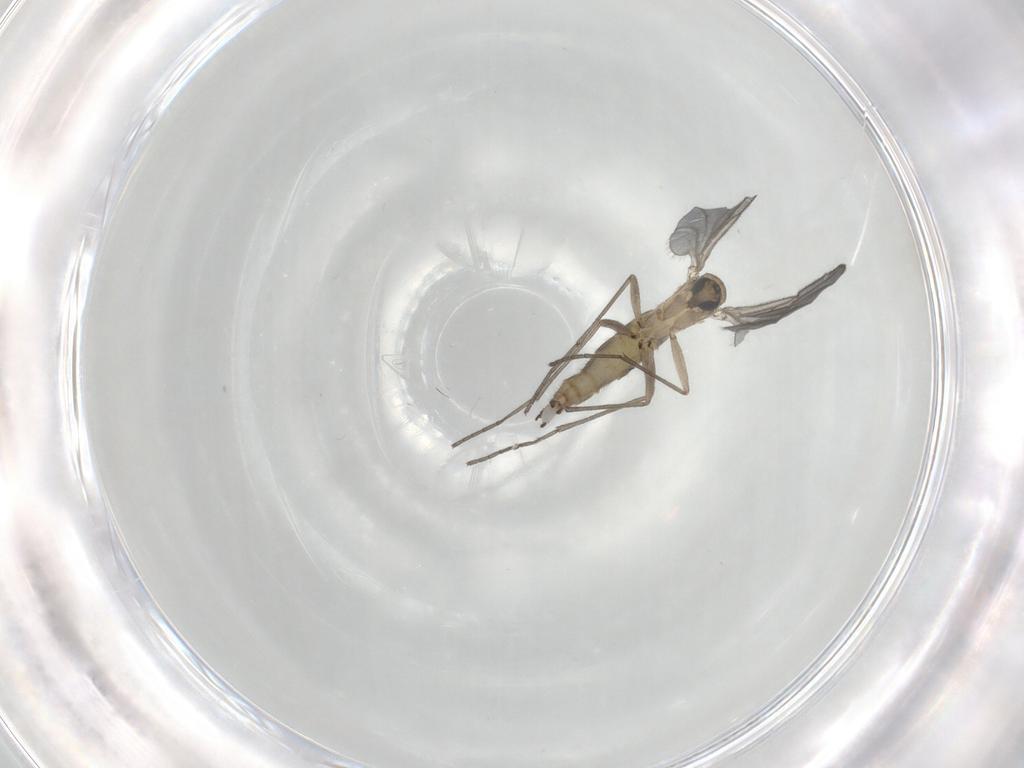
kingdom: Animalia
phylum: Arthropoda
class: Insecta
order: Diptera
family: Sciaridae
